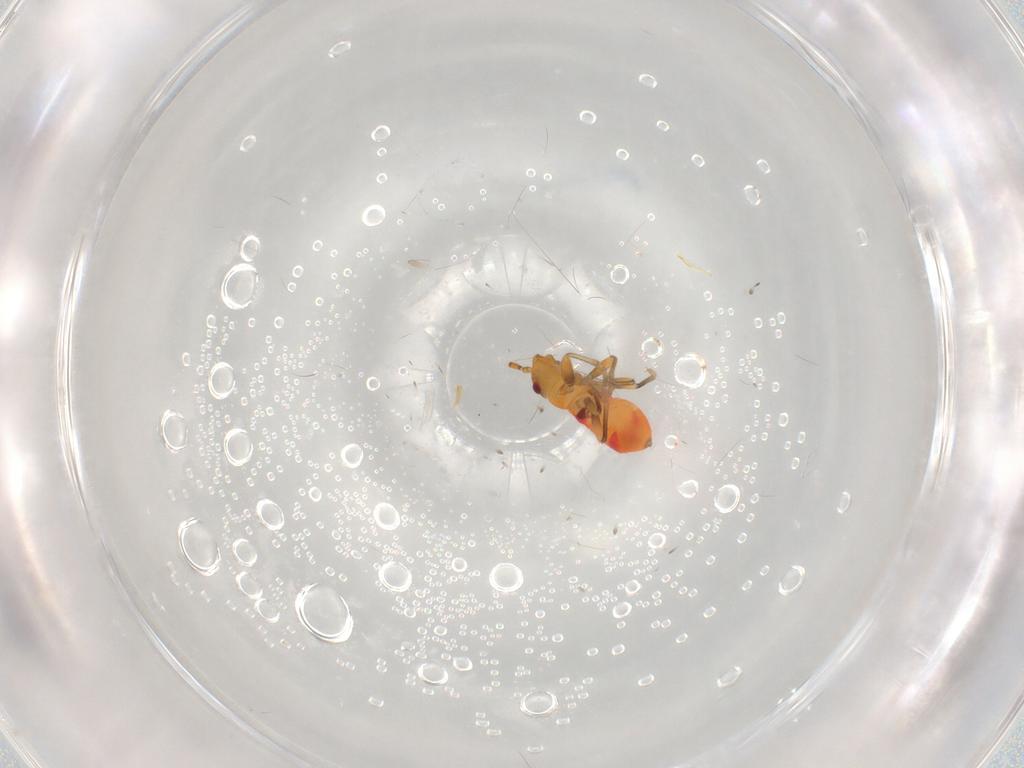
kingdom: Animalia
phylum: Arthropoda
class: Insecta
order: Hemiptera
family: Rhyparochromidae
